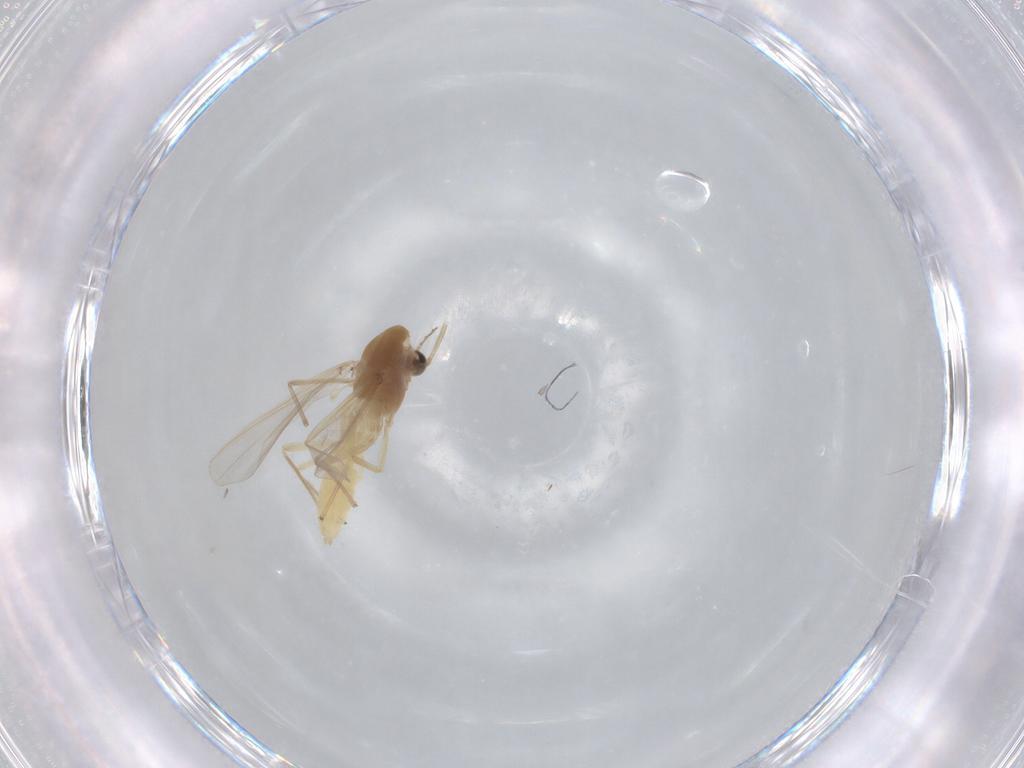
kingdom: Animalia
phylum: Arthropoda
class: Insecta
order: Diptera
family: Chironomidae
